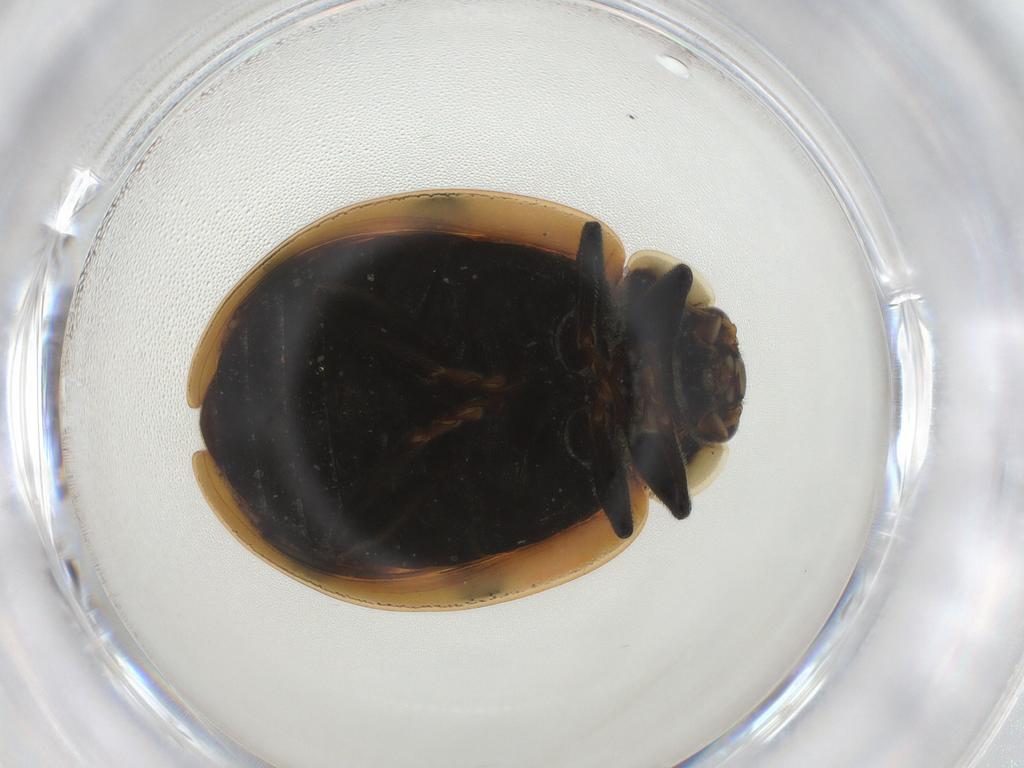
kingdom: Animalia
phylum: Arthropoda
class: Insecta
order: Coleoptera
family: Coccinellidae
